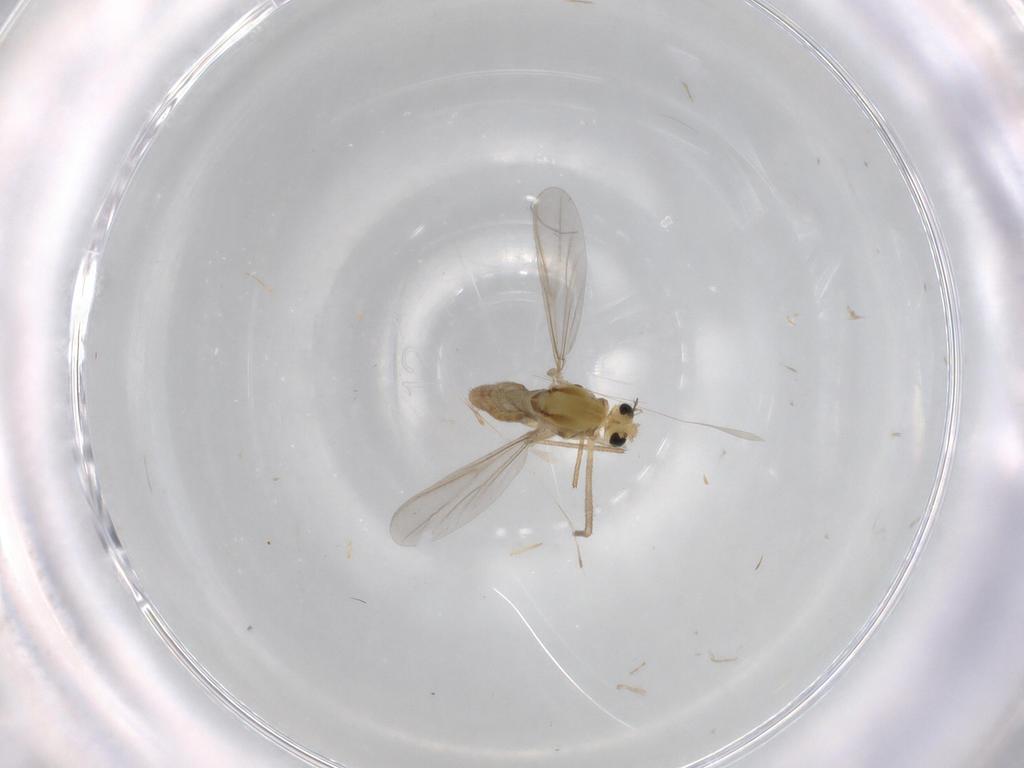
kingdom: Animalia
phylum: Arthropoda
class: Insecta
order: Diptera
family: Chironomidae
